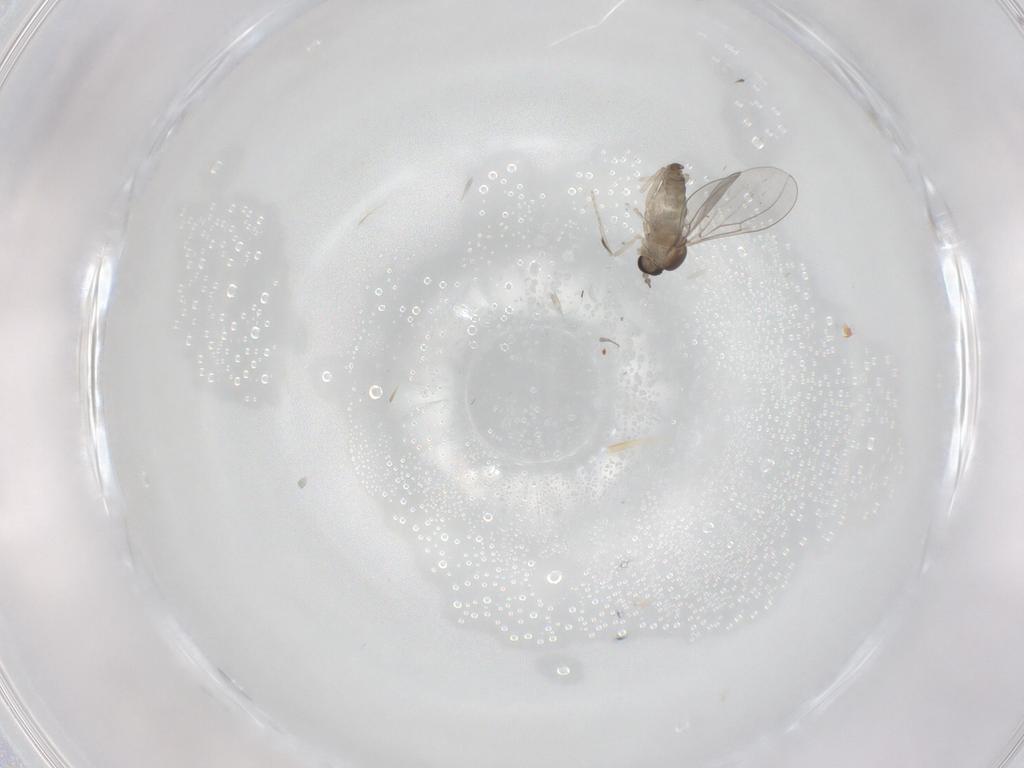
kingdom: Animalia
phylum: Arthropoda
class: Insecta
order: Diptera
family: Cecidomyiidae
